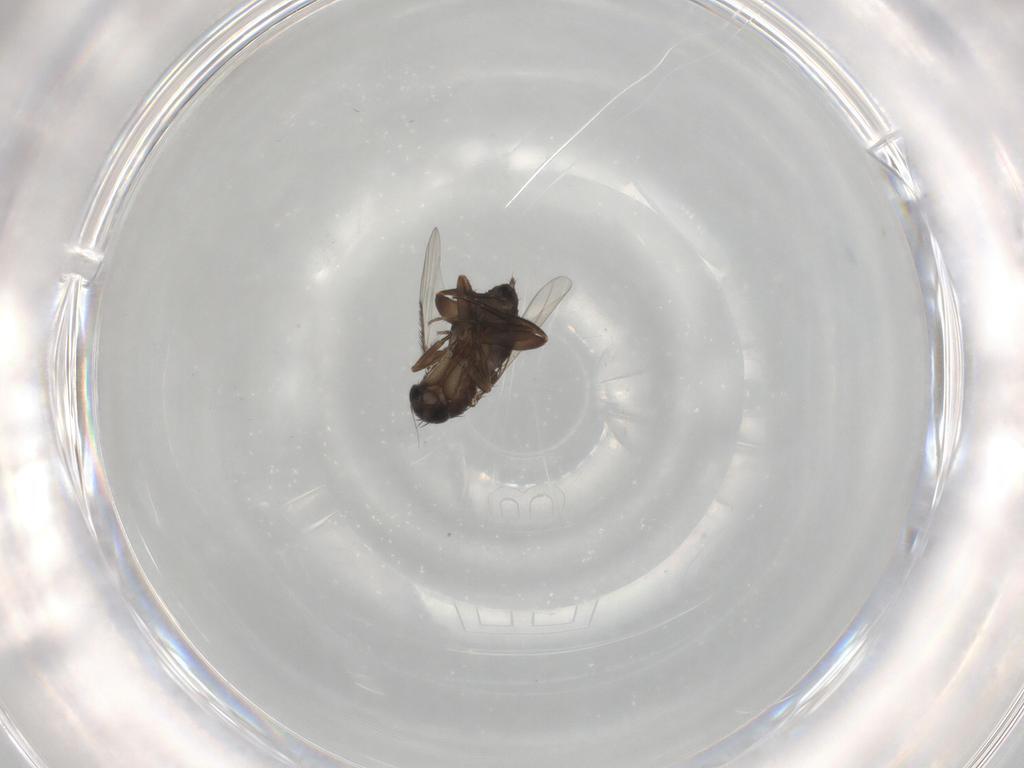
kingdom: Animalia
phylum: Arthropoda
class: Insecta
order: Diptera
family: Phoridae
